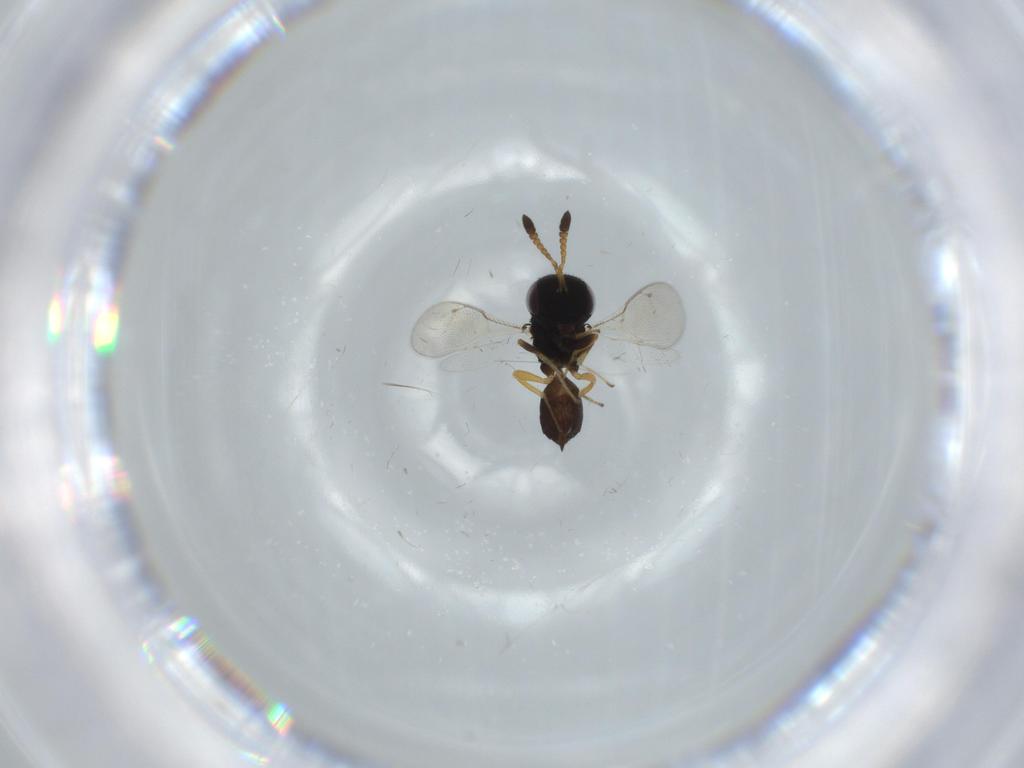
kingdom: Animalia
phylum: Arthropoda
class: Insecta
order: Hymenoptera
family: Pteromalidae
